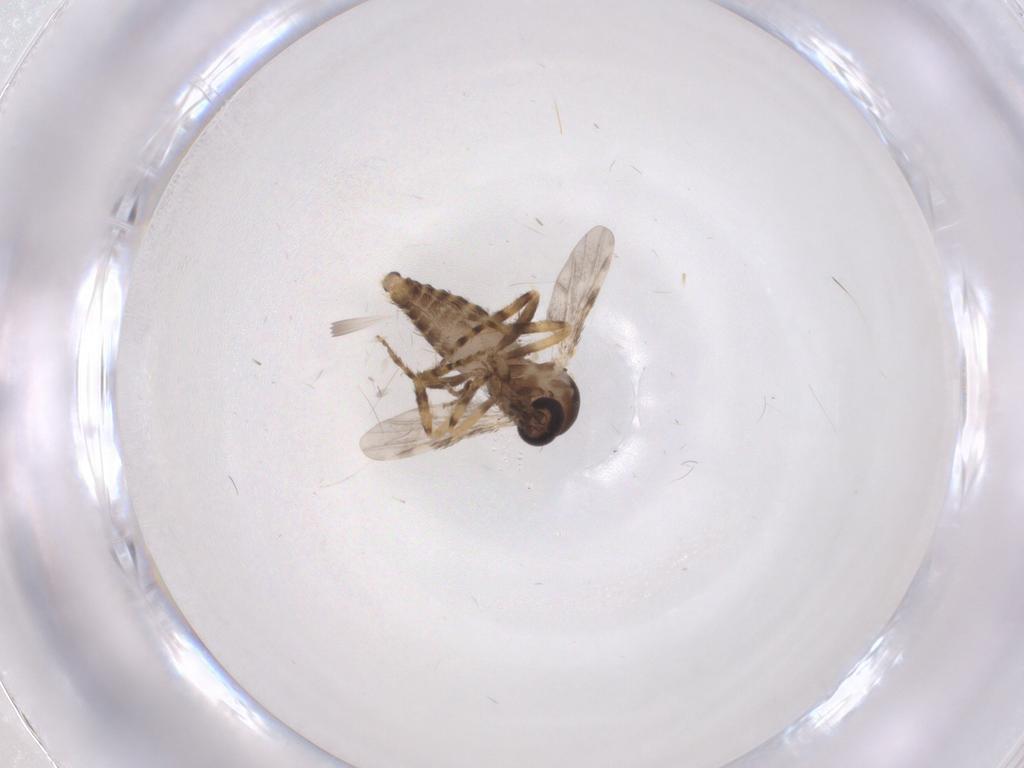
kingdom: Animalia
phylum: Arthropoda
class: Insecta
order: Diptera
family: Ceratopogonidae
